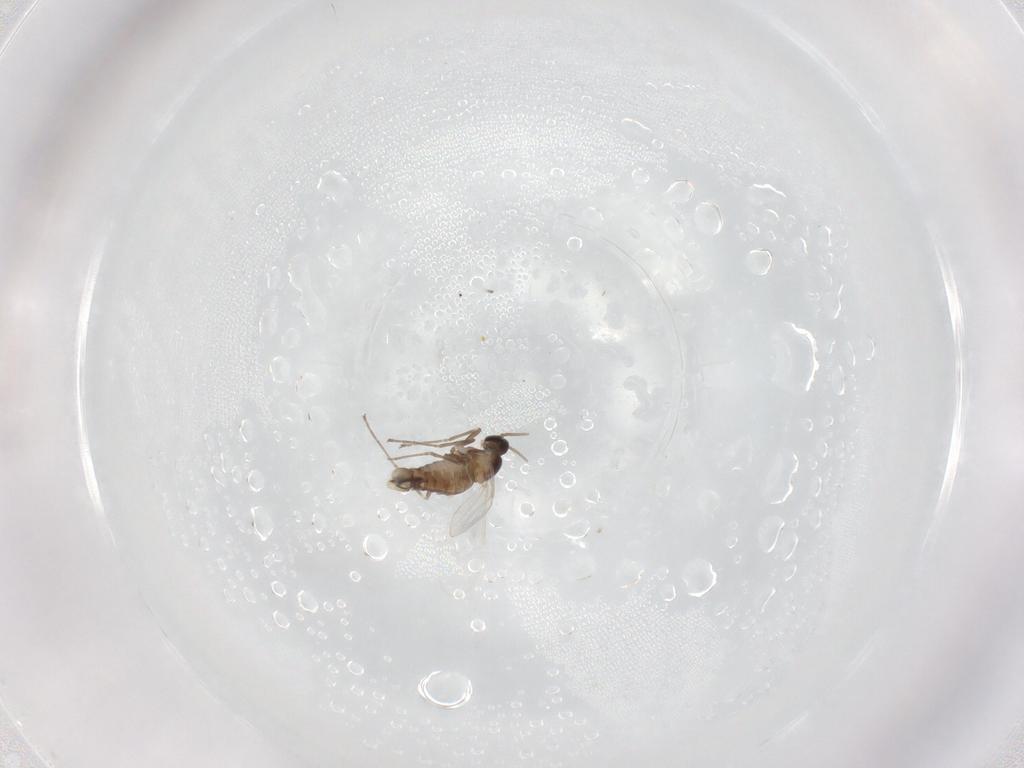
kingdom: Animalia
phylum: Arthropoda
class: Insecta
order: Diptera
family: Cecidomyiidae
